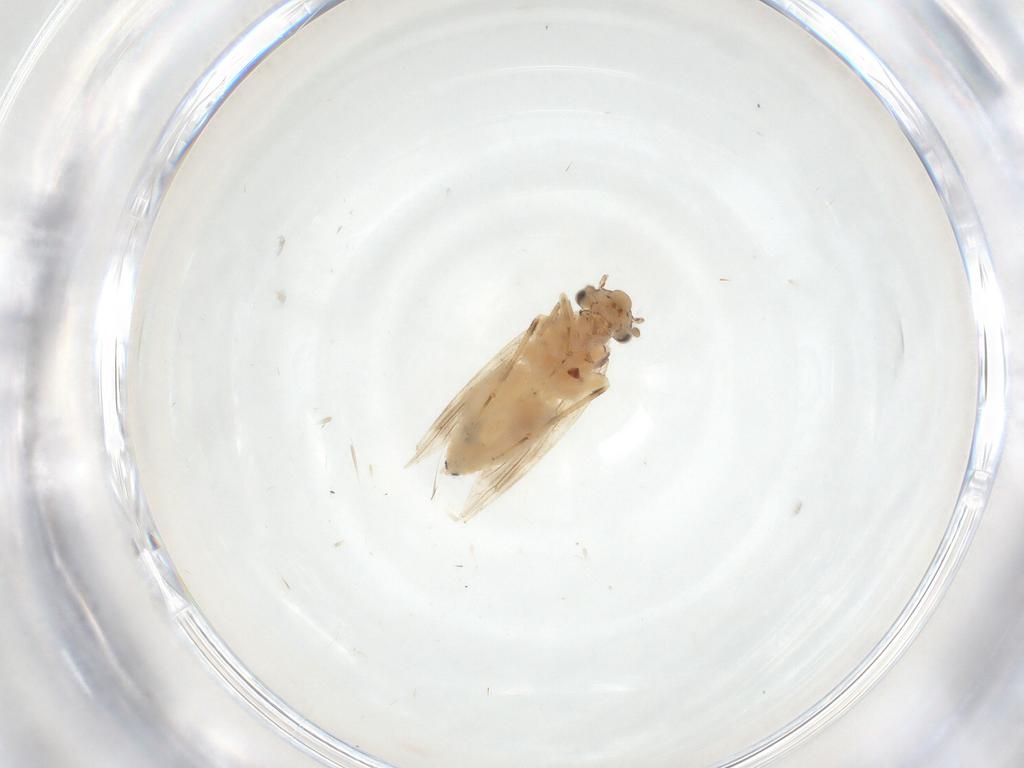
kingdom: Animalia
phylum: Arthropoda
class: Insecta
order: Psocodea
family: Lepidopsocidae
